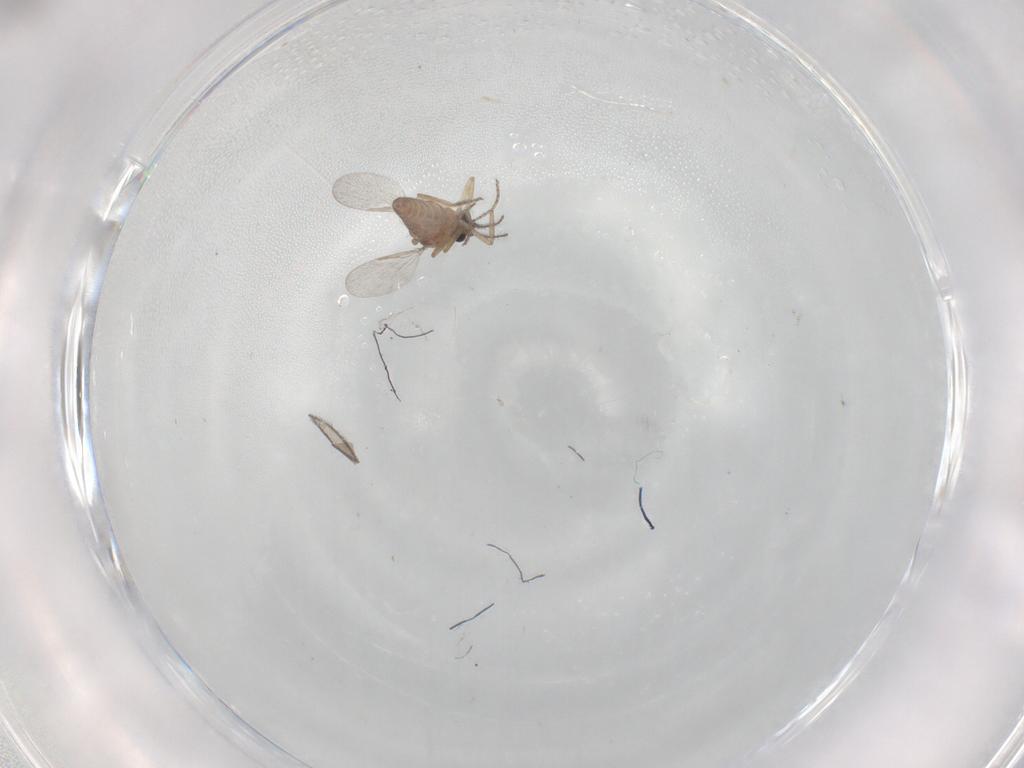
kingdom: Animalia
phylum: Arthropoda
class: Insecta
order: Diptera
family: Ceratopogonidae
